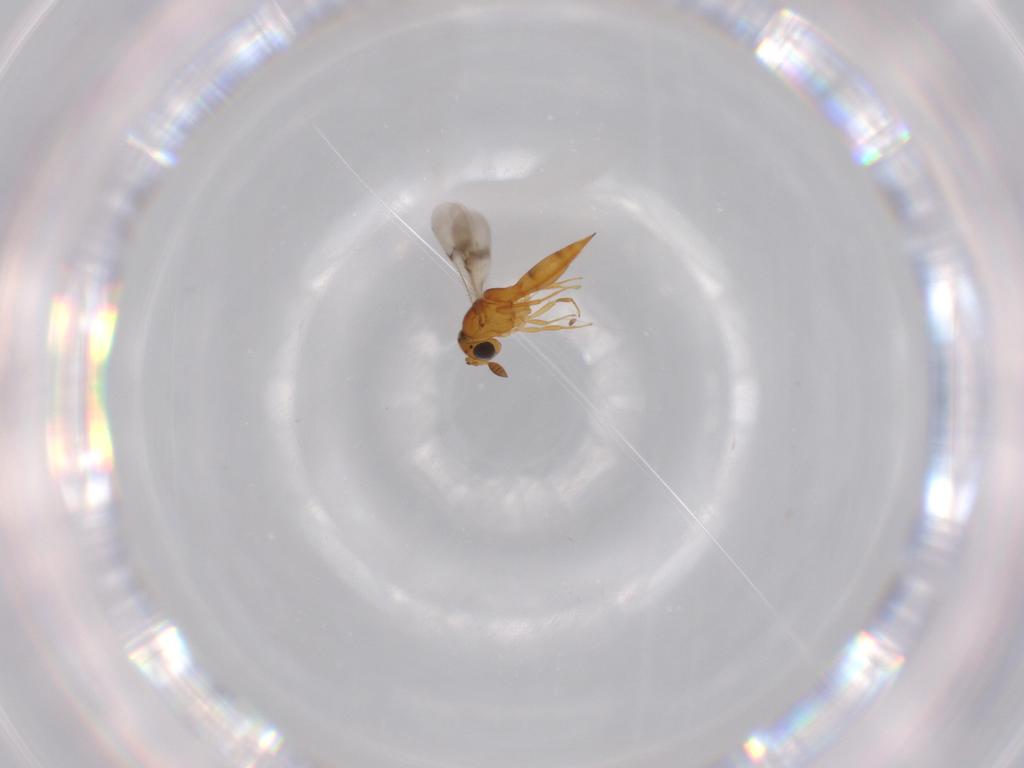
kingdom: Animalia
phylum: Arthropoda
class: Insecta
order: Hymenoptera
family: Scelionidae
